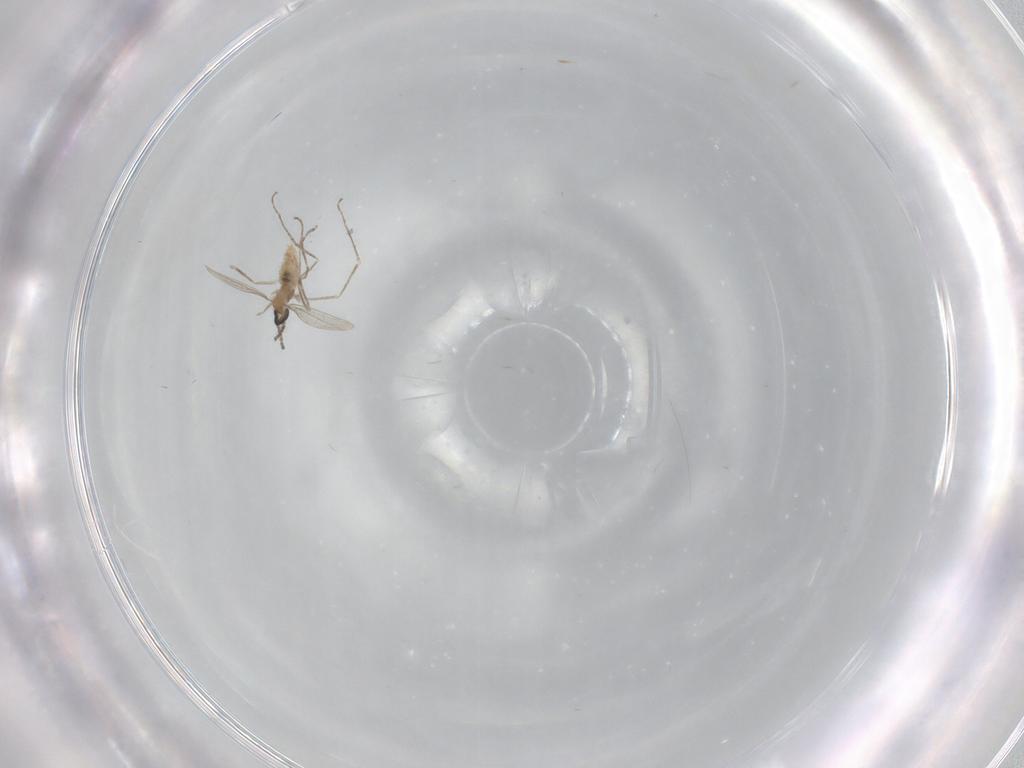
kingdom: Animalia
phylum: Arthropoda
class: Insecta
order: Diptera
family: Cecidomyiidae
